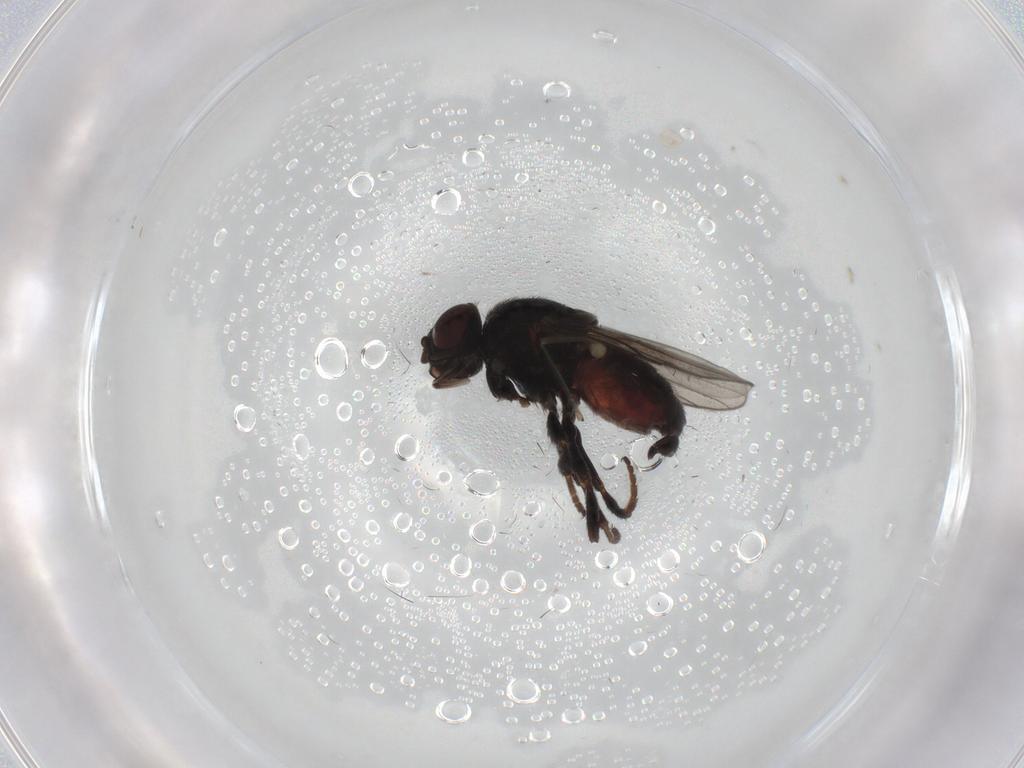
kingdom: Animalia
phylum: Arthropoda
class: Insecta
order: Diptera
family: Chloropidae
